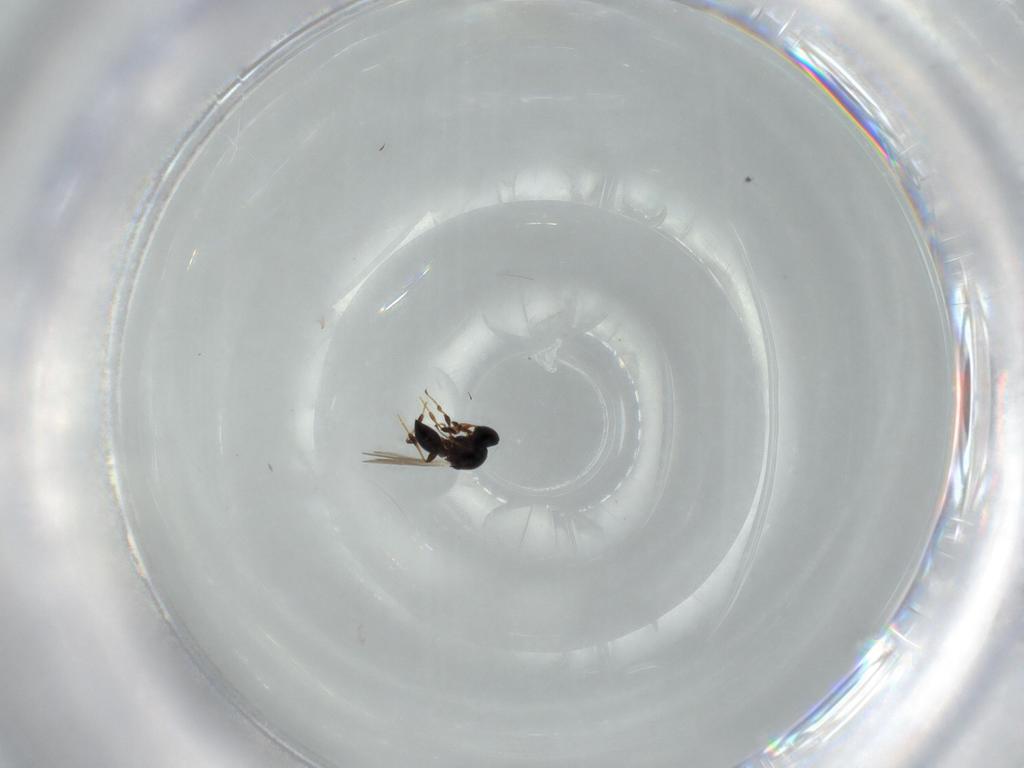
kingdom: Animalia
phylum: Arthropoda
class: Insecta
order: Hymenoptera
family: Platygastridae
